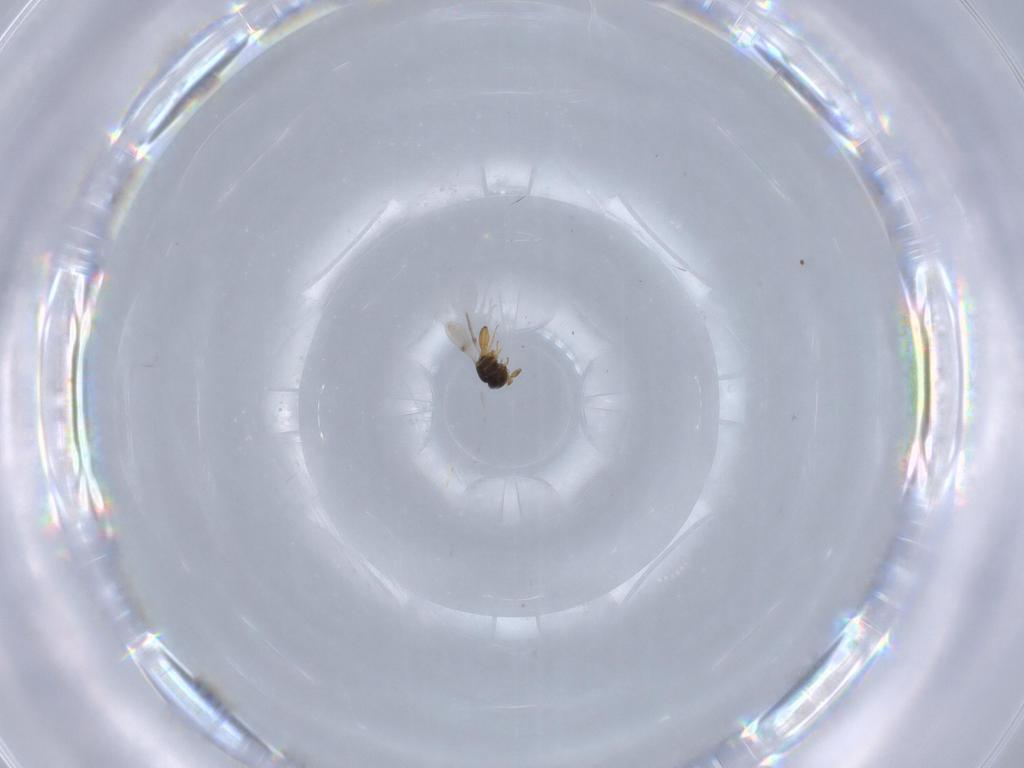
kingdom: Animalia
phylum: Arthropoda
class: Insecta
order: Hymenoptera
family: Scelionidae
